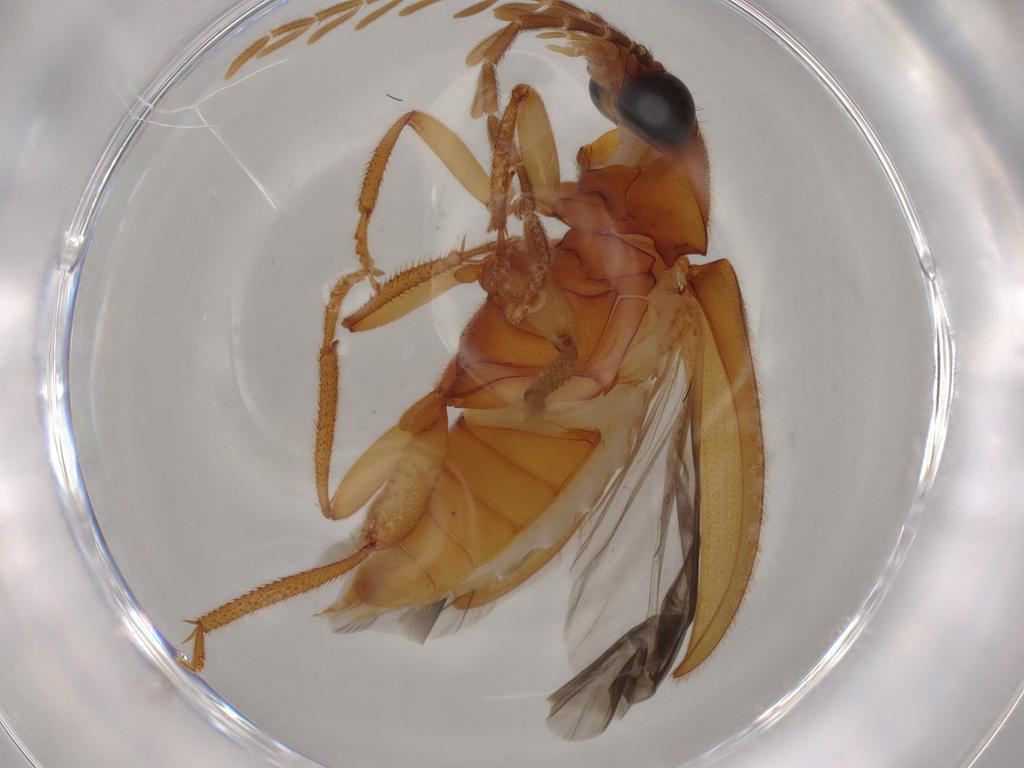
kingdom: Animalia
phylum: Arthropoda
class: Insecta
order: Coleoptera
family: Ptilodactylidae
